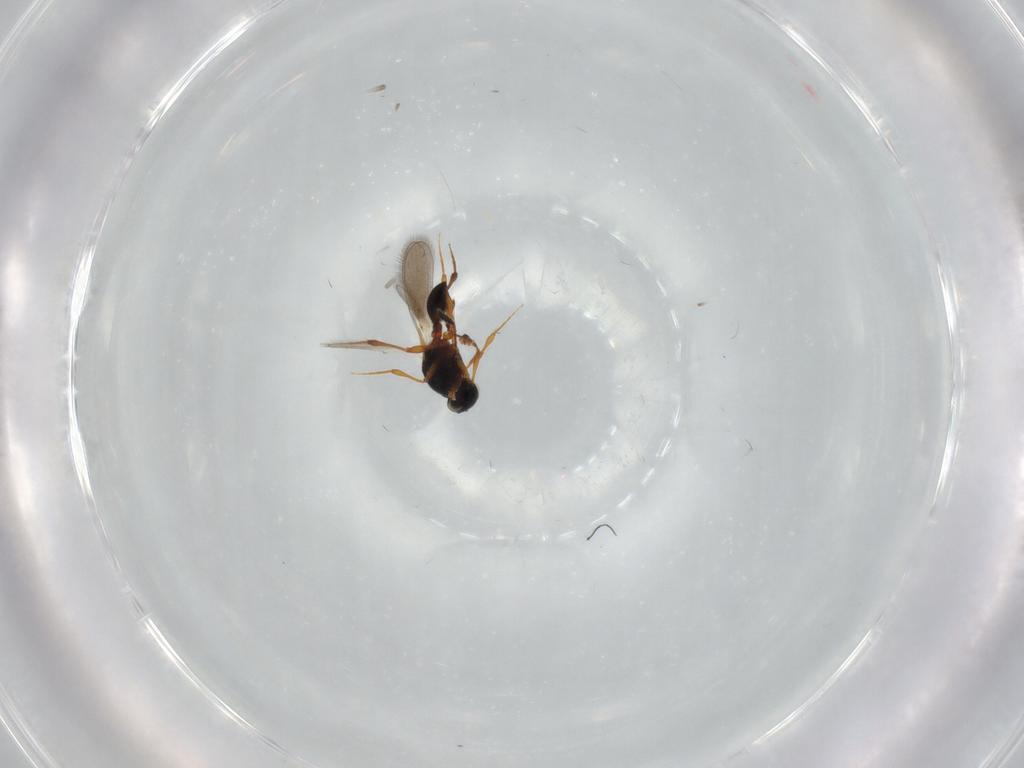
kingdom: Animalia
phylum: Arthropoda
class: Insecta
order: Hymenoptera
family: Platygastridae
